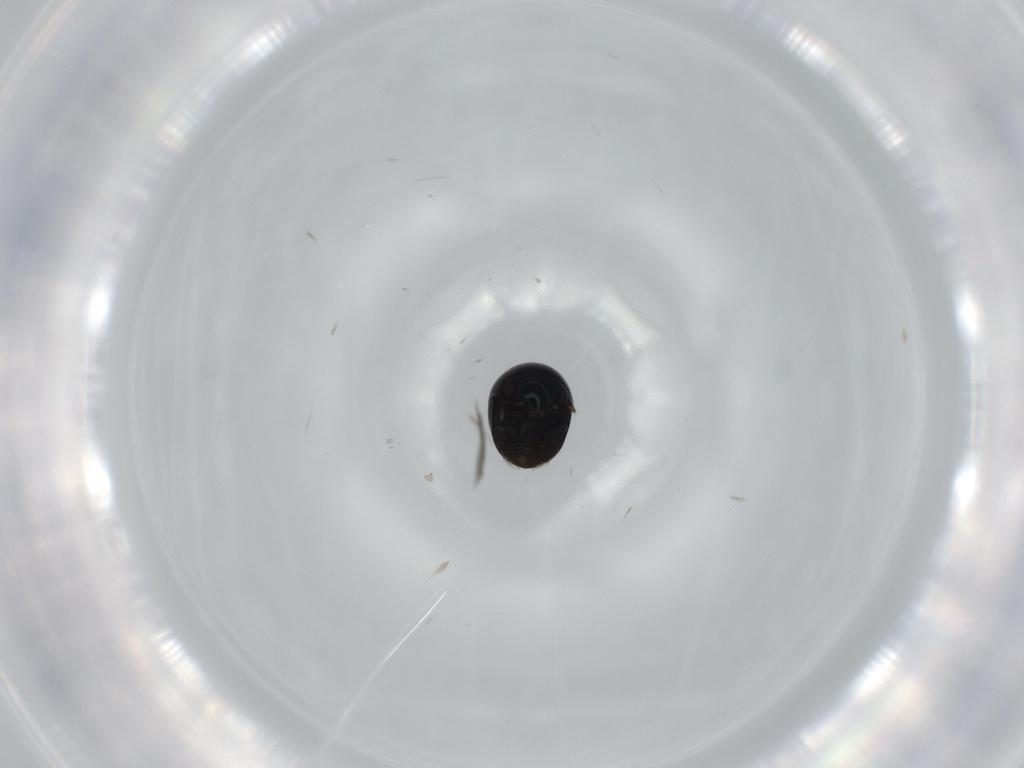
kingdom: Animalia
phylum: Arthropoda
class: Insecta
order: Coleoptera
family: Cybocephalidae
